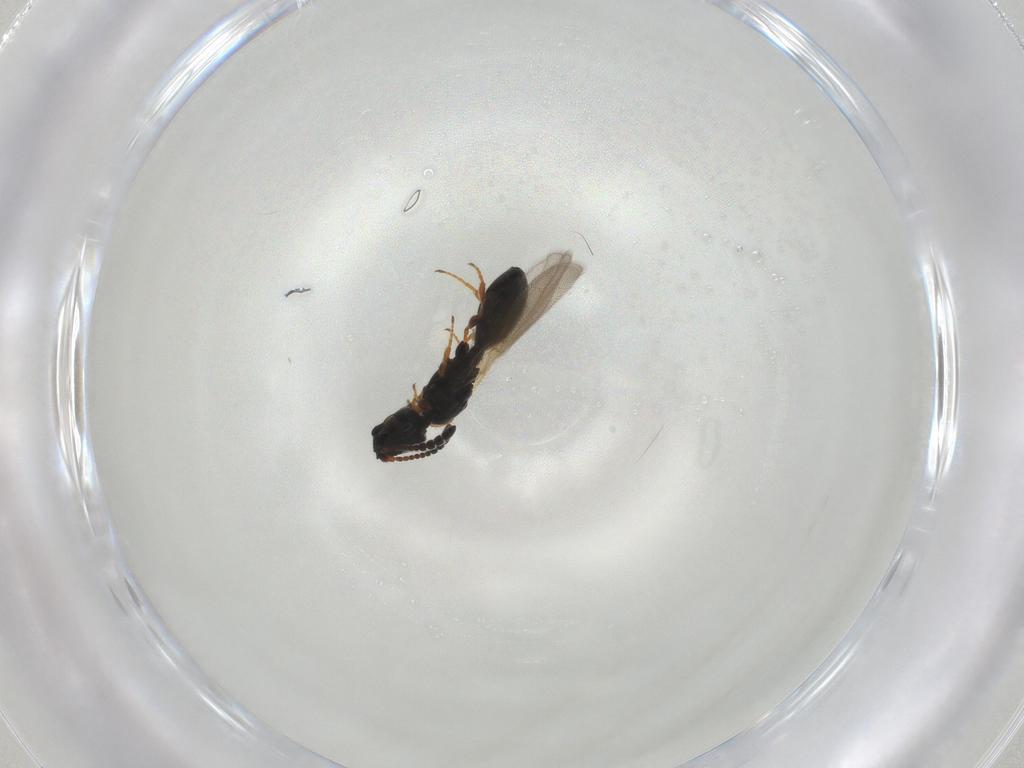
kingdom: Animalia
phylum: Arthropoda
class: Insecta
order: Hymenoptera
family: Diapriidae
